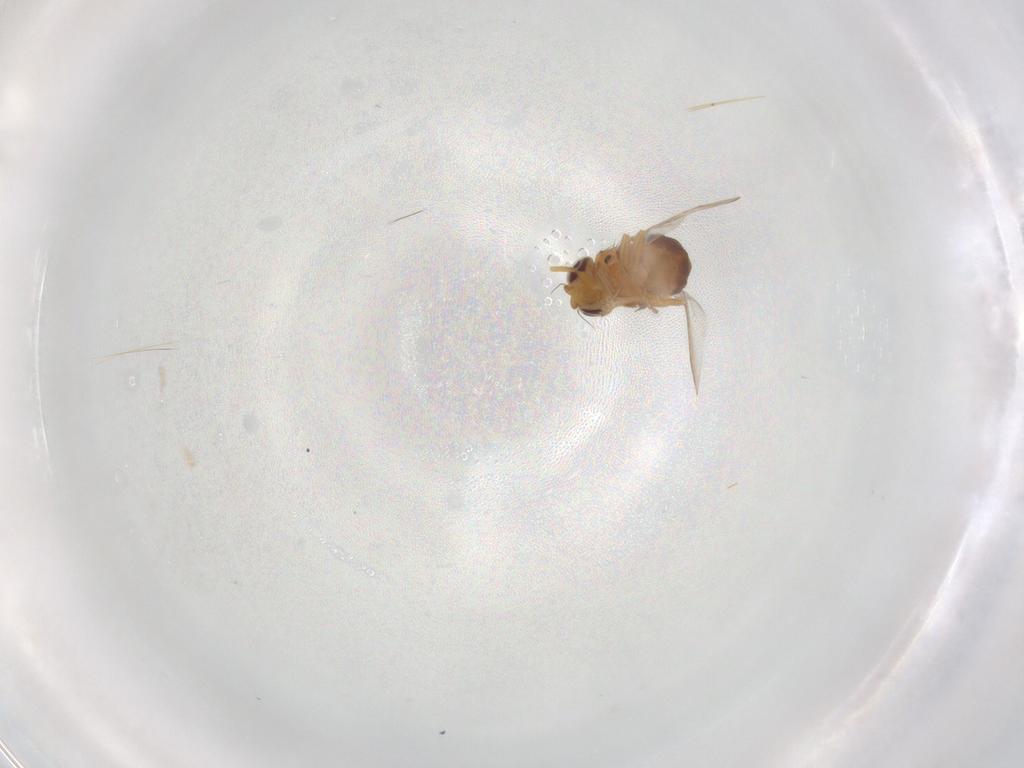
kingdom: Animalia
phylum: Arthropoda
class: Insecta
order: Diptera
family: Chloropidae
